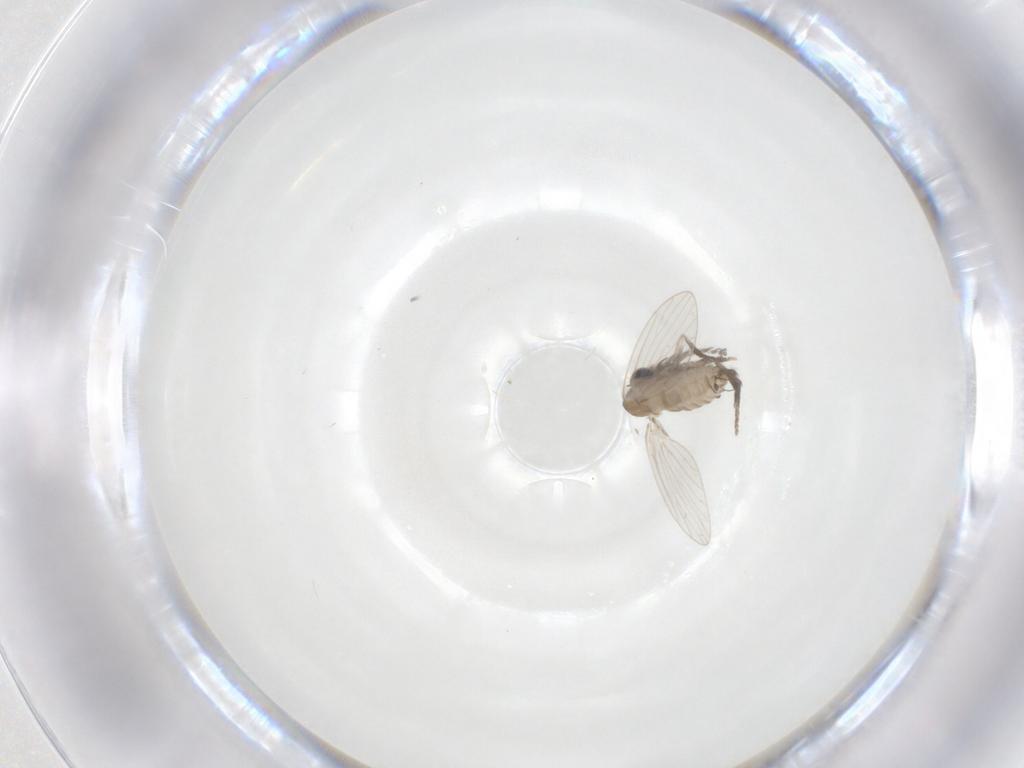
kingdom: Animalia
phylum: Arthropoda
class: Insecta
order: Diptera
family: Phoridae
